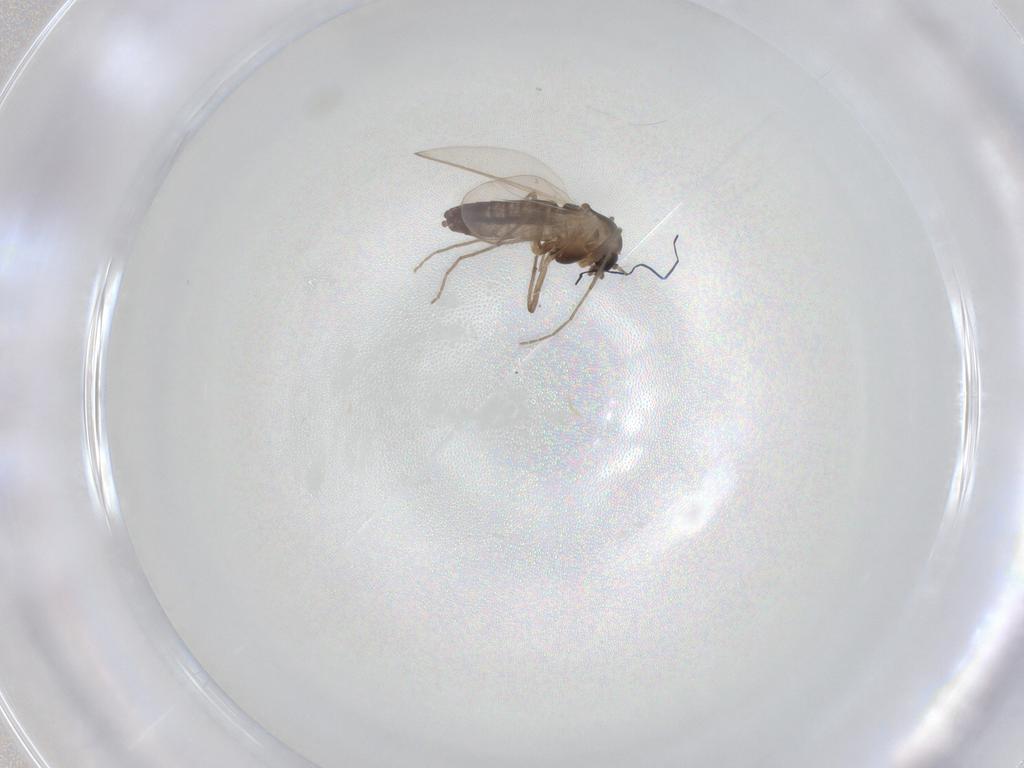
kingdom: Animalia
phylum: Arthropoda
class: Insecta
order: Diptera
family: Chironomidae
